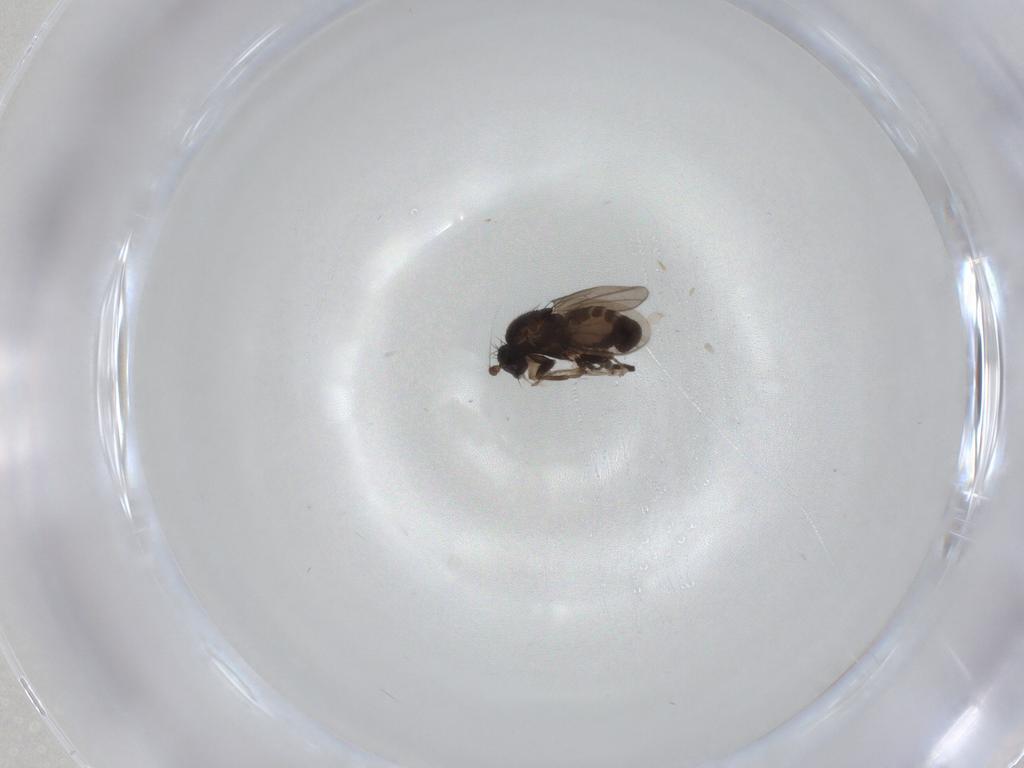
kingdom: Animalia
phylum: Arthropoda
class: Insecta
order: Diptera
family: Sphaeroceridae
